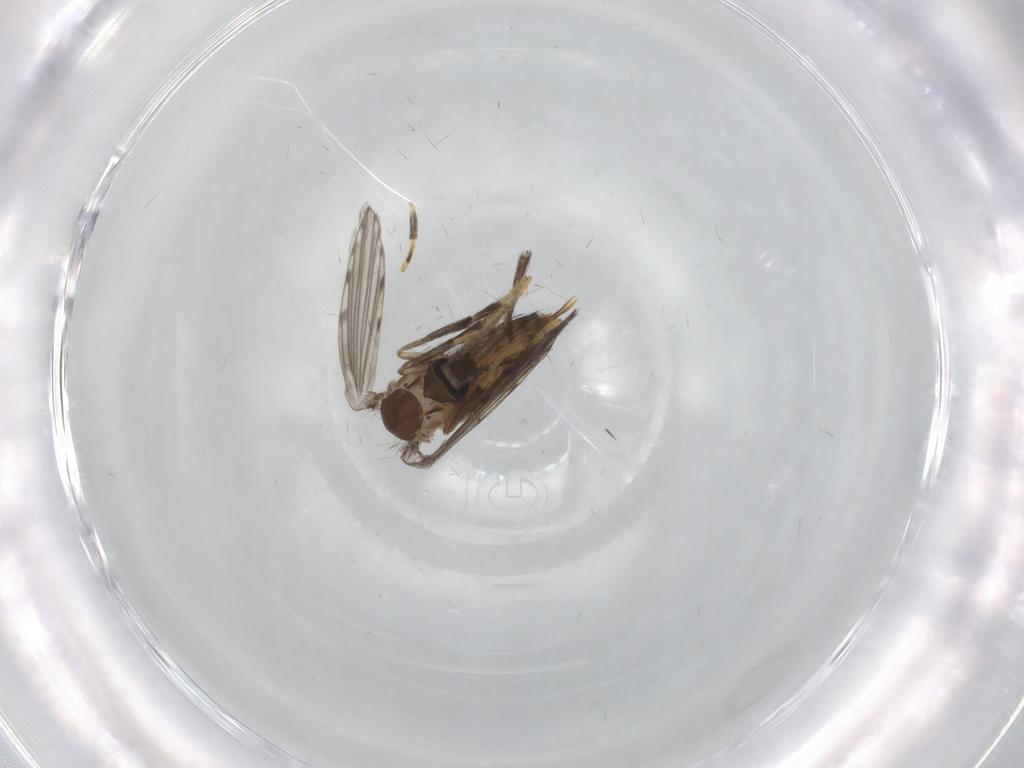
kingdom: Animalia
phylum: Arthropoda
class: Insecta
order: Diptera
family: Psychodidae
